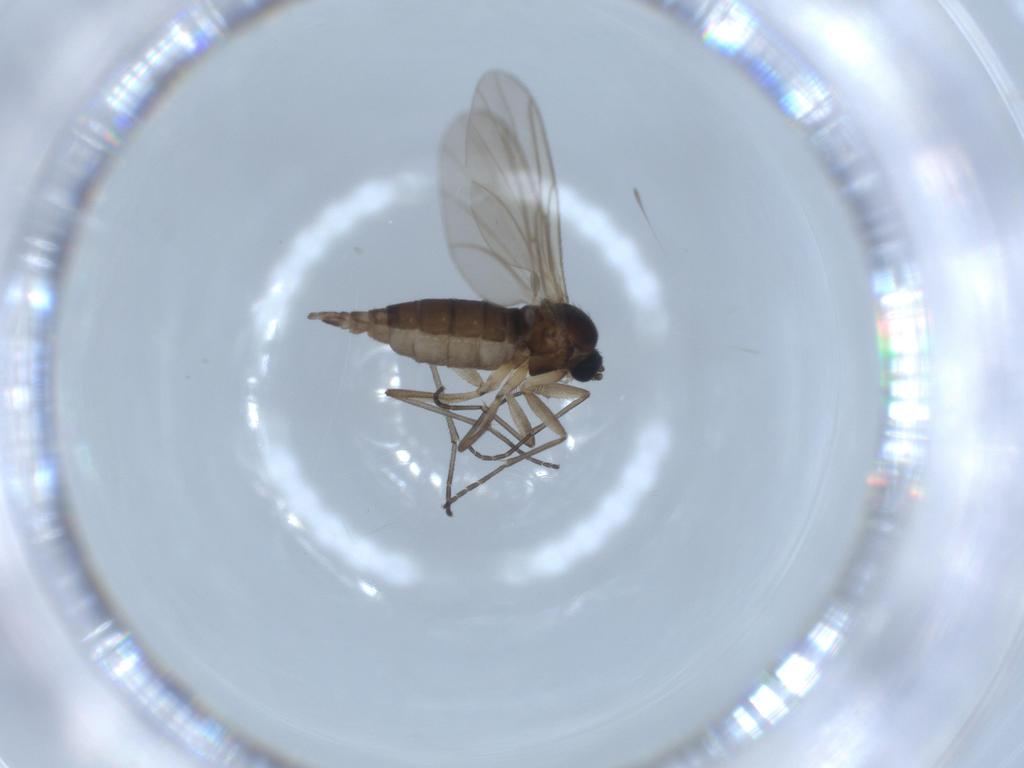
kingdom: Animalia
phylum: Arthropoda
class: Insecta
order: Diptera
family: Sciaridae
